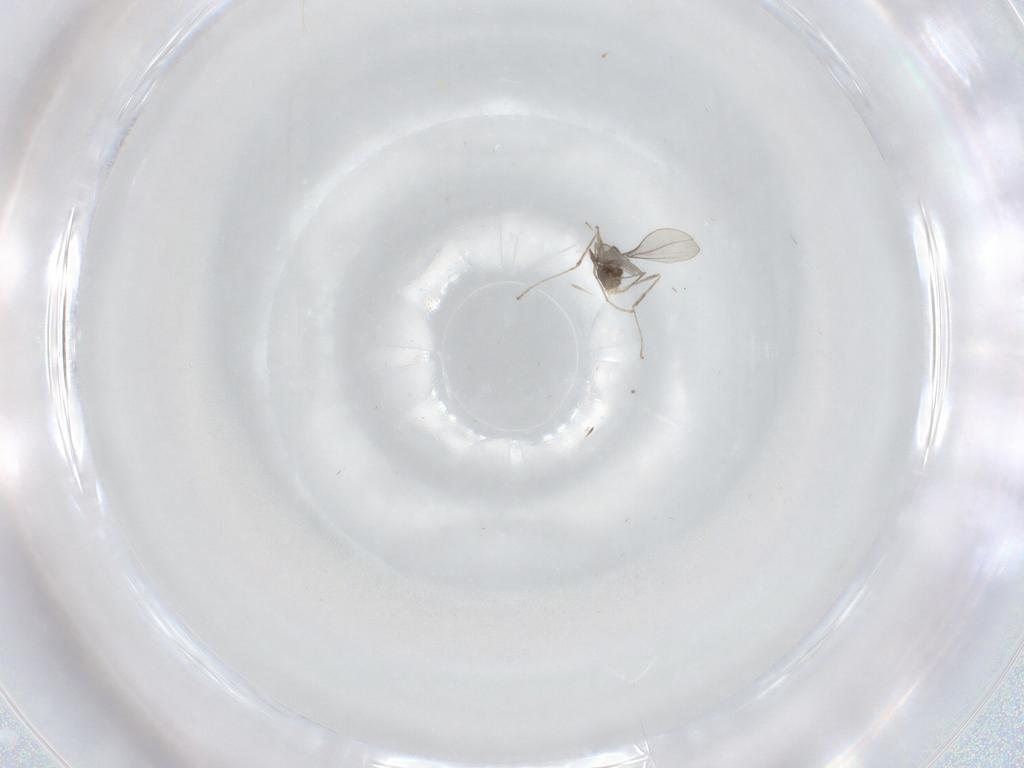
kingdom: Animalia
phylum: Arthropoda
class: Insecta
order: Diptera
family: Cecidomyiidae
